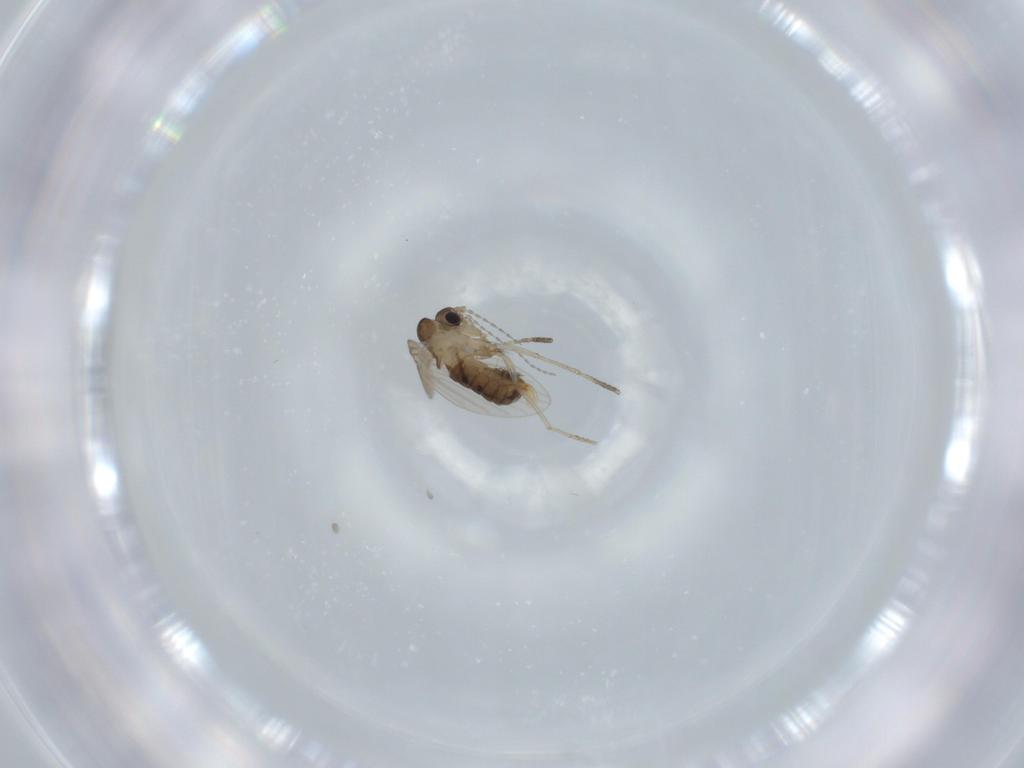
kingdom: Animalia
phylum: Arthropoda
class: Insecta
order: Diptera
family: Psychodidae
